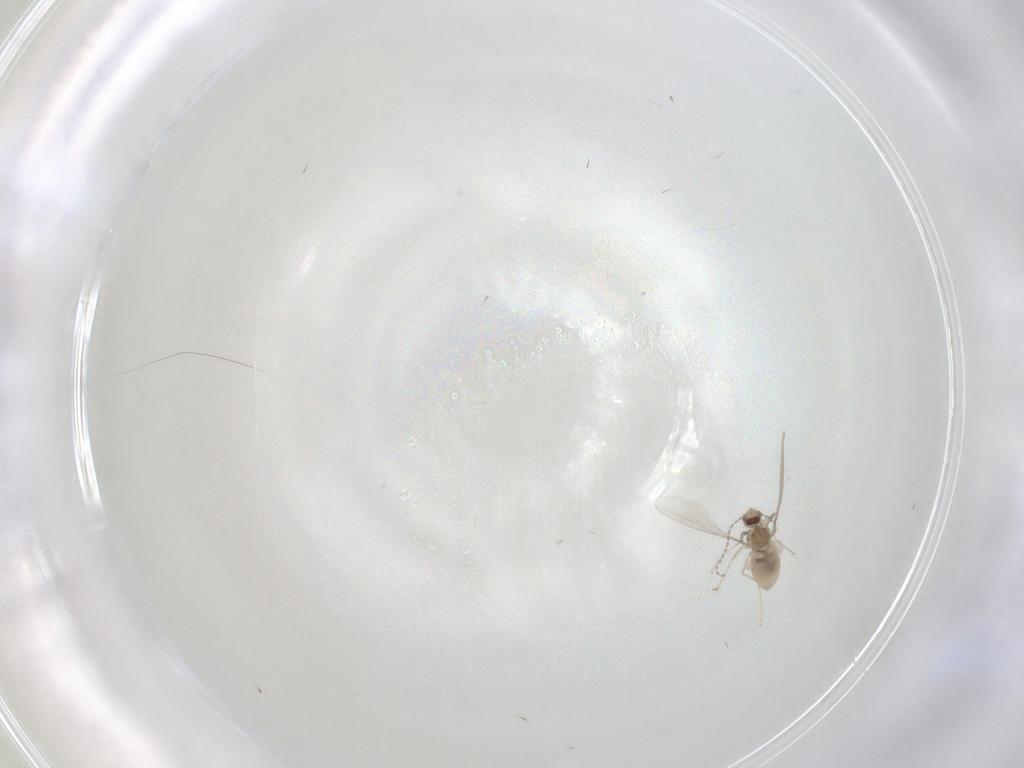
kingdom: Animalia
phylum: Arthropoda
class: Insecta
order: Diptera
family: Cecidomyiidae
